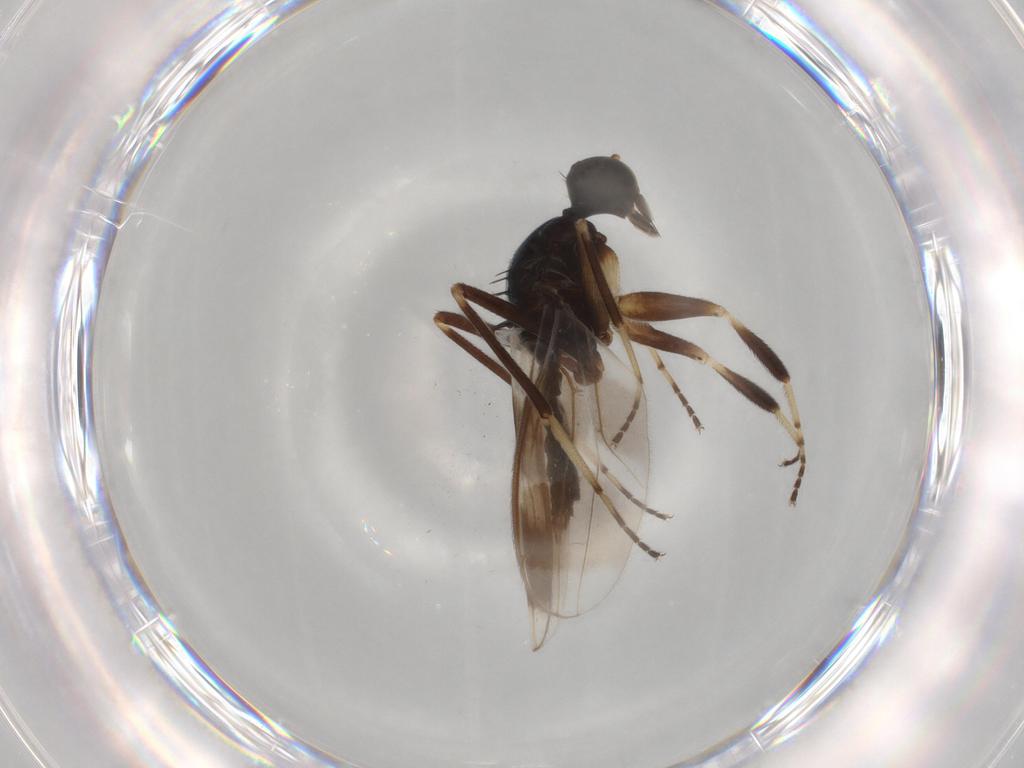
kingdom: Animalia
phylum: Arthropoda
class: Insecta
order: Diptera
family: Hybotidae
